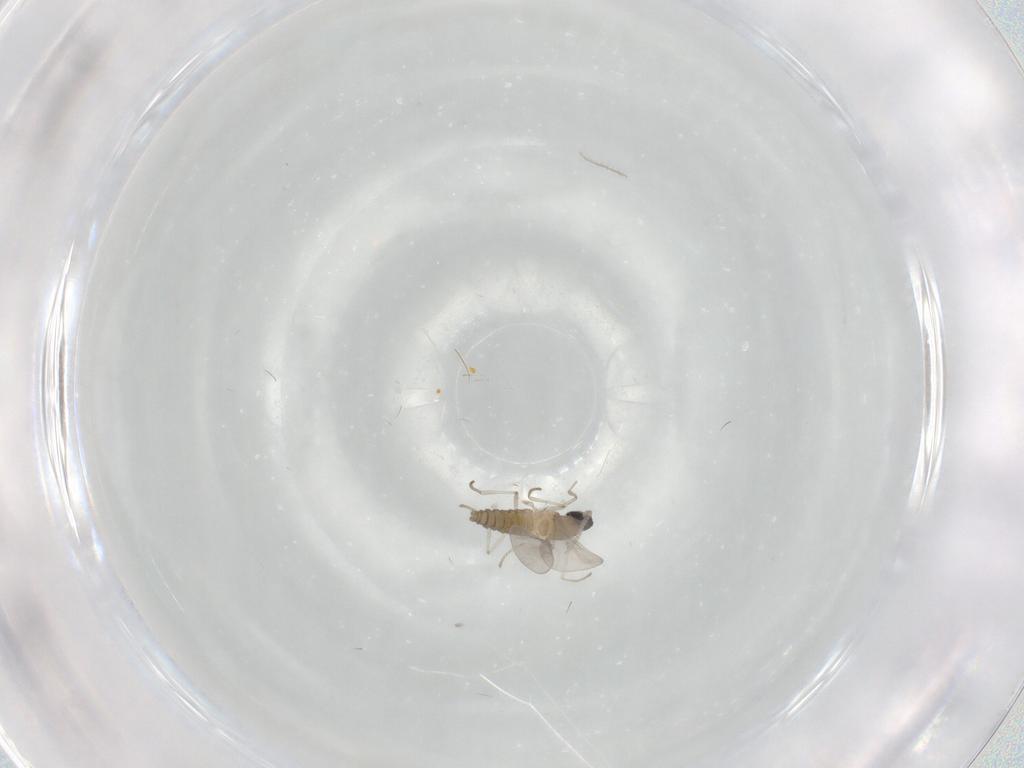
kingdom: Animalia
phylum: Arthropoda
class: Insecta
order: Diptera
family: Cecidomyiidae
